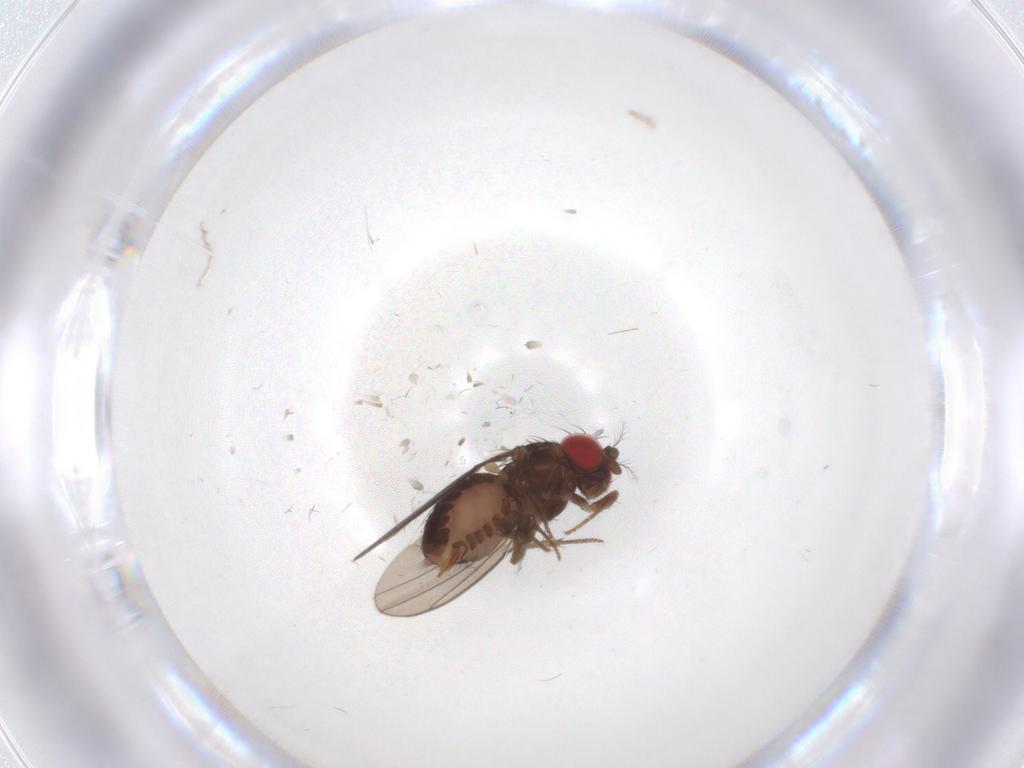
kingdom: Animalia
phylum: Arthropoda
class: Insecta
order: Diptera
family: Drosophilidae
